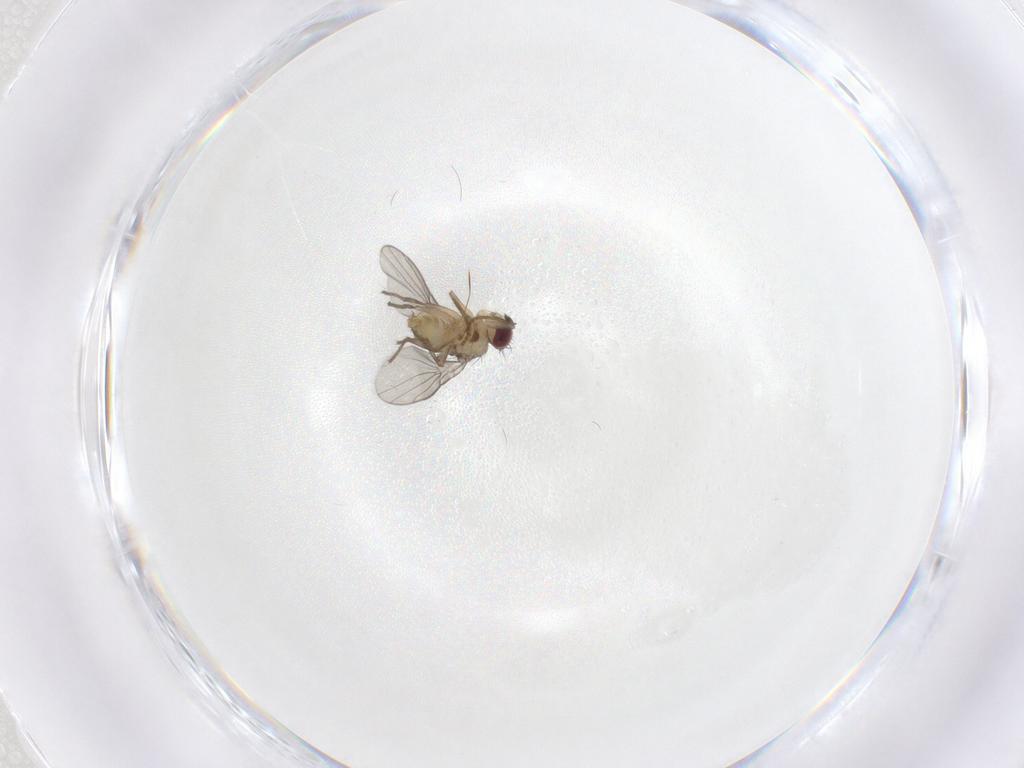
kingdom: Animalia
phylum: Arthropoda
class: Insecta
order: Diptera
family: Agromyzidae
